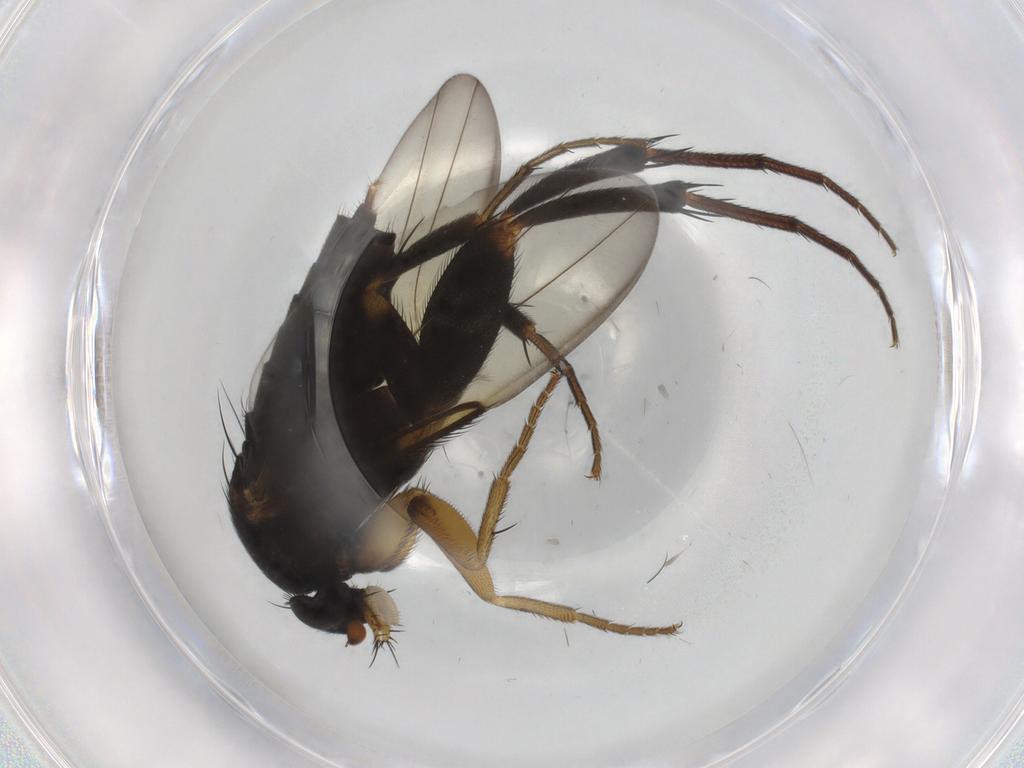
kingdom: Animalia
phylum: Arthropoda
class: Insecta
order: Diptera
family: Phoridae
